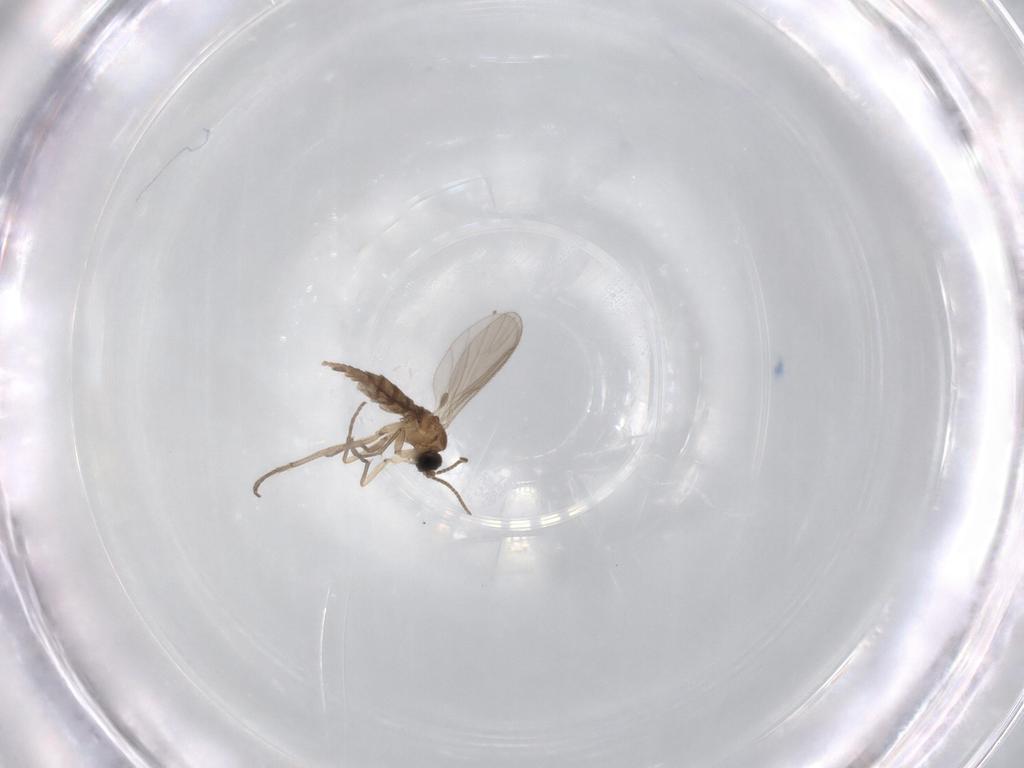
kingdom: Animalia
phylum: Arthropoda
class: Insecta
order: Diptera
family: Sciaridae
